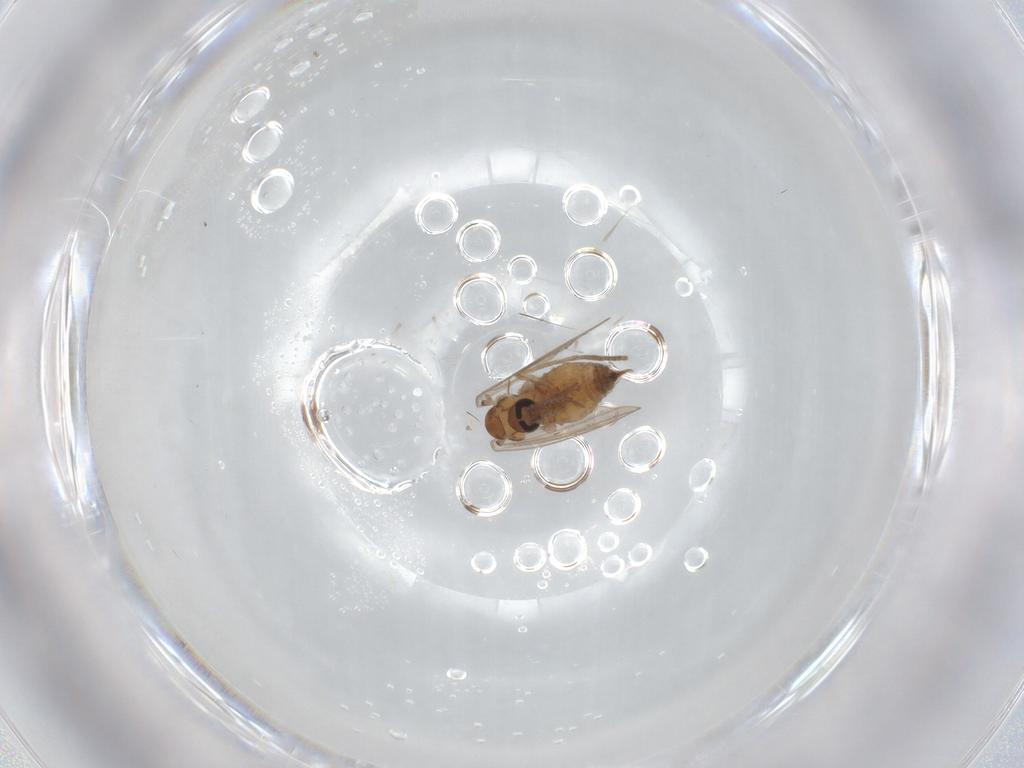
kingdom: Animalia
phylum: Arthropoda
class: Insecta
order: Diptera
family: Psychodidae
